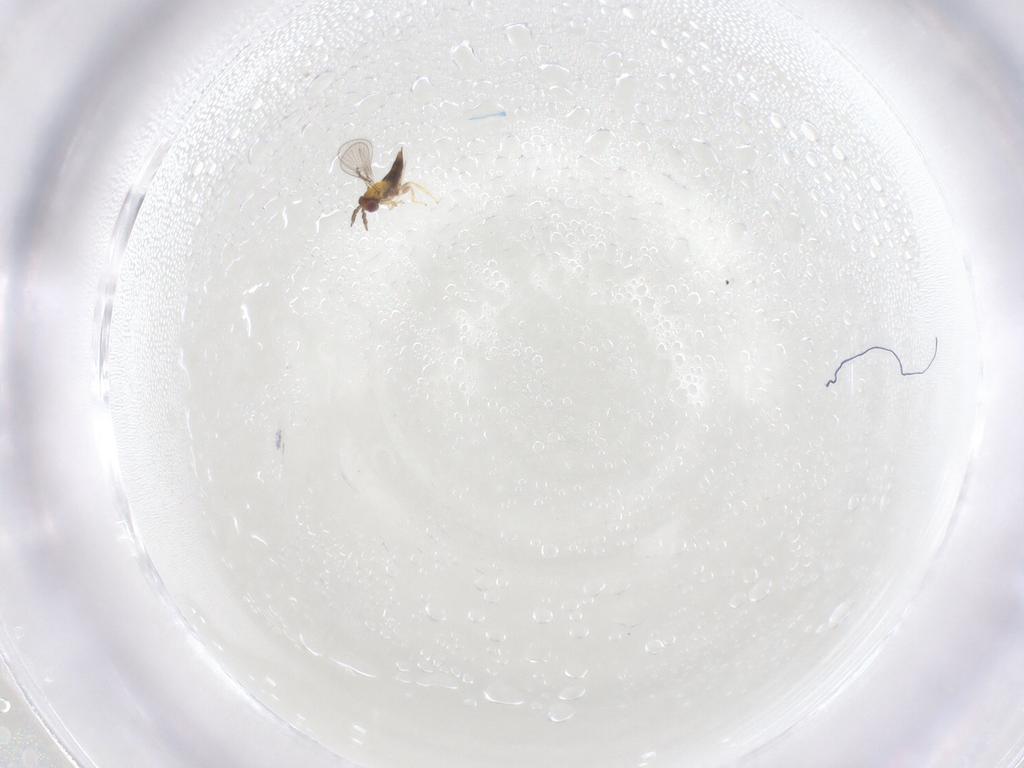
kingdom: Animalia
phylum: Arthropoda
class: Insecta
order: Hymenoptera
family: Trichogrammatidae
